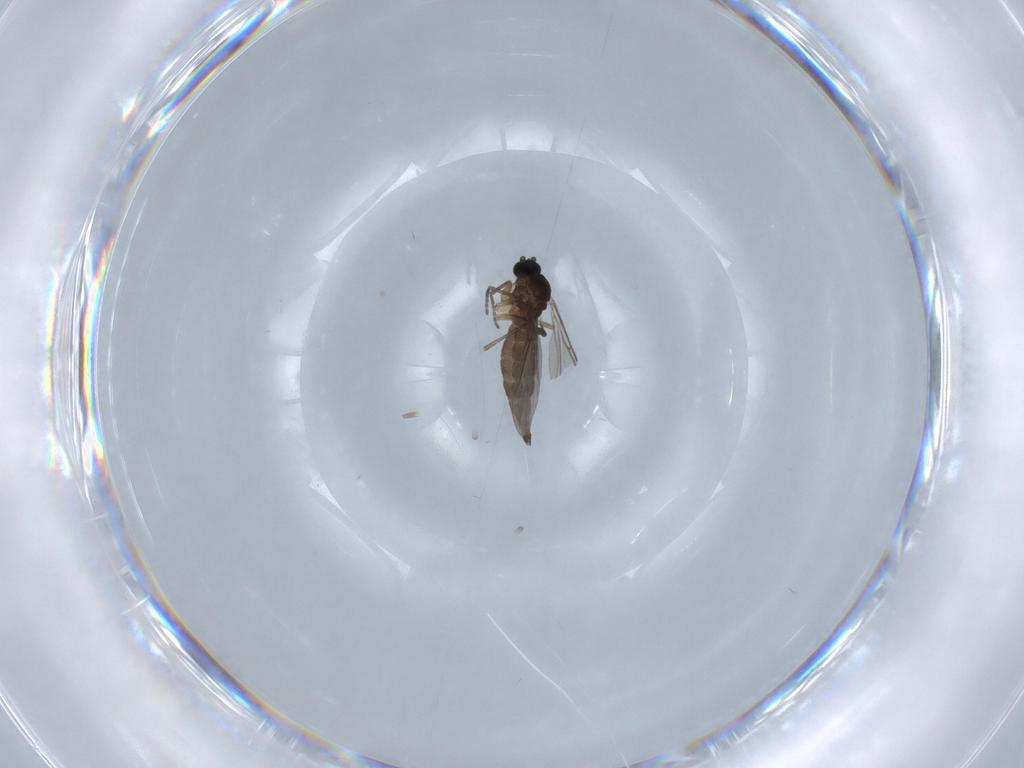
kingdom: Animalia
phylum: Arthropoda
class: Insecta
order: Diptera
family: Sciaridae
